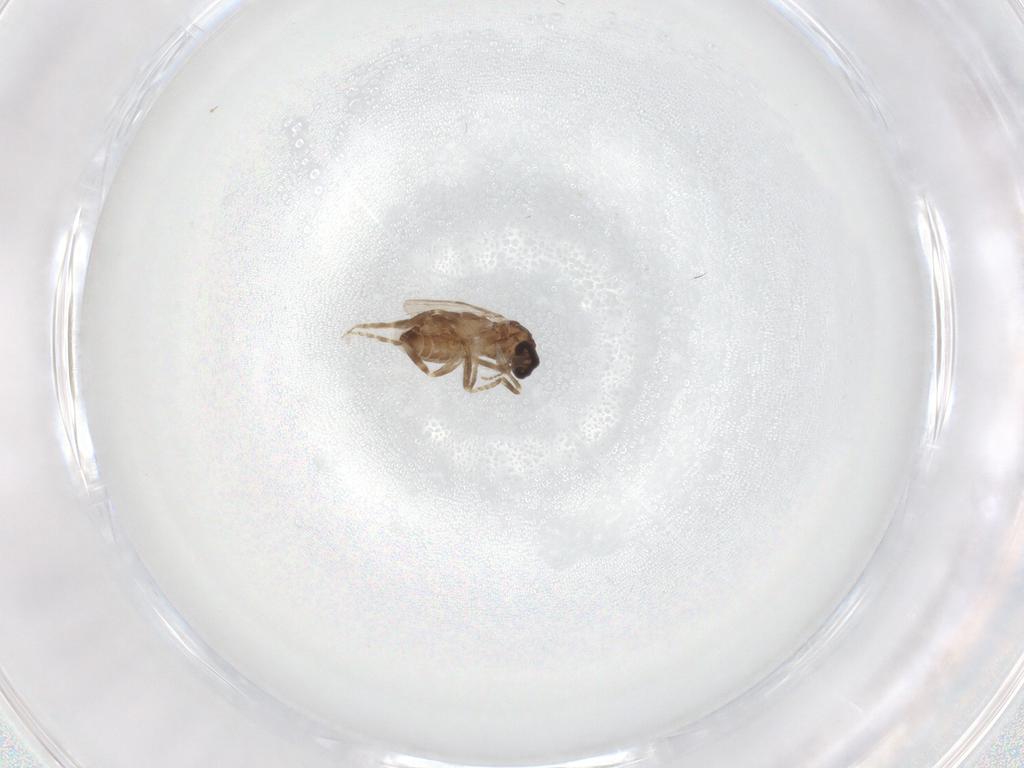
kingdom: Animalia
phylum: Arthropoda
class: Insecta
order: Diptera
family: Ceratopogonidae
